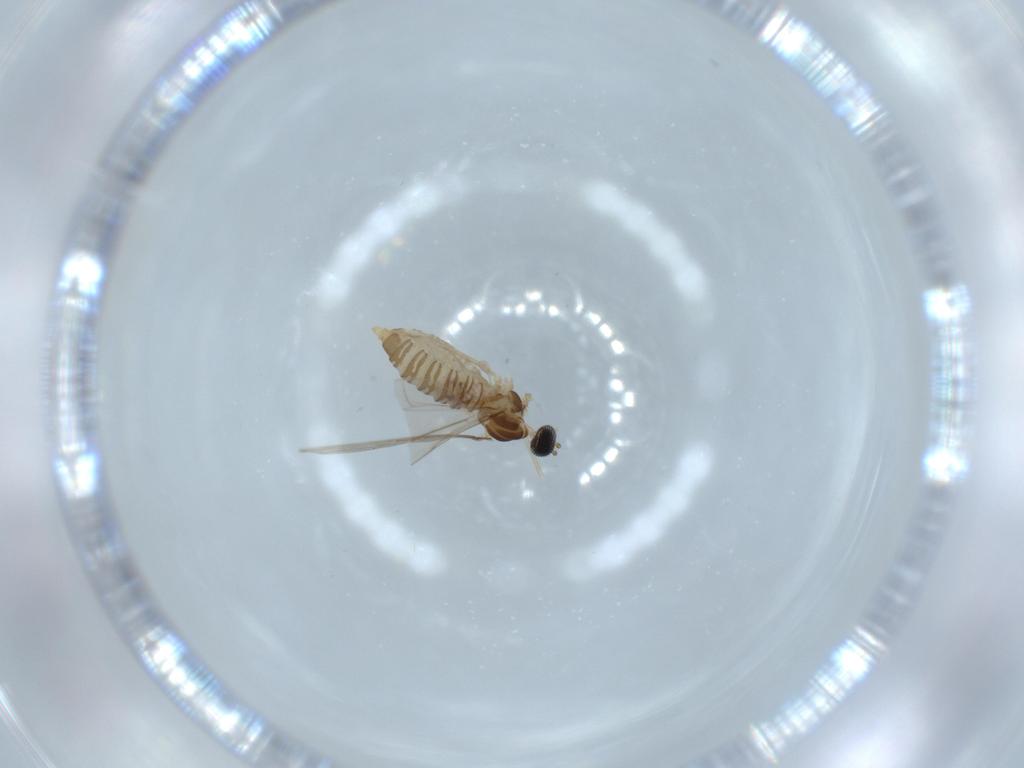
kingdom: Animalia
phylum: Arthropoda
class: Insecta
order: Diptera
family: Cecidomyiidae
